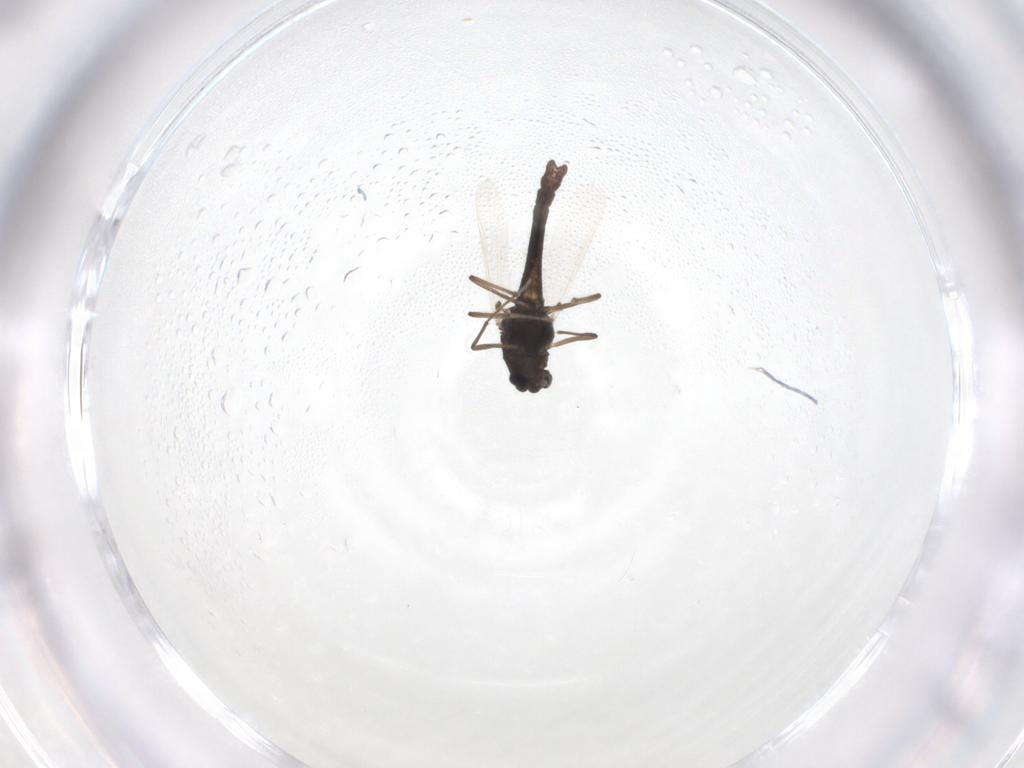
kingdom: Animalia
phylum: Arthropoda
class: Insecta
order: Diptera
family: Chironomidae
